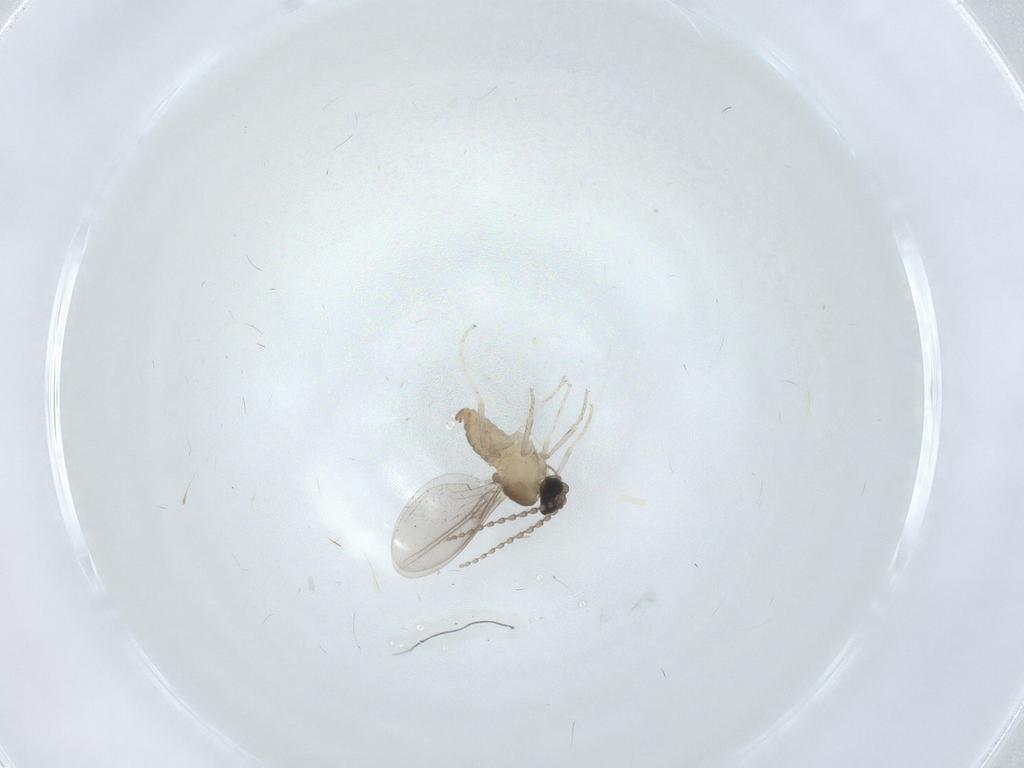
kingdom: Animalia
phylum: Arthropoda
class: Insecta
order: Diptera
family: Cecidomyiidae
